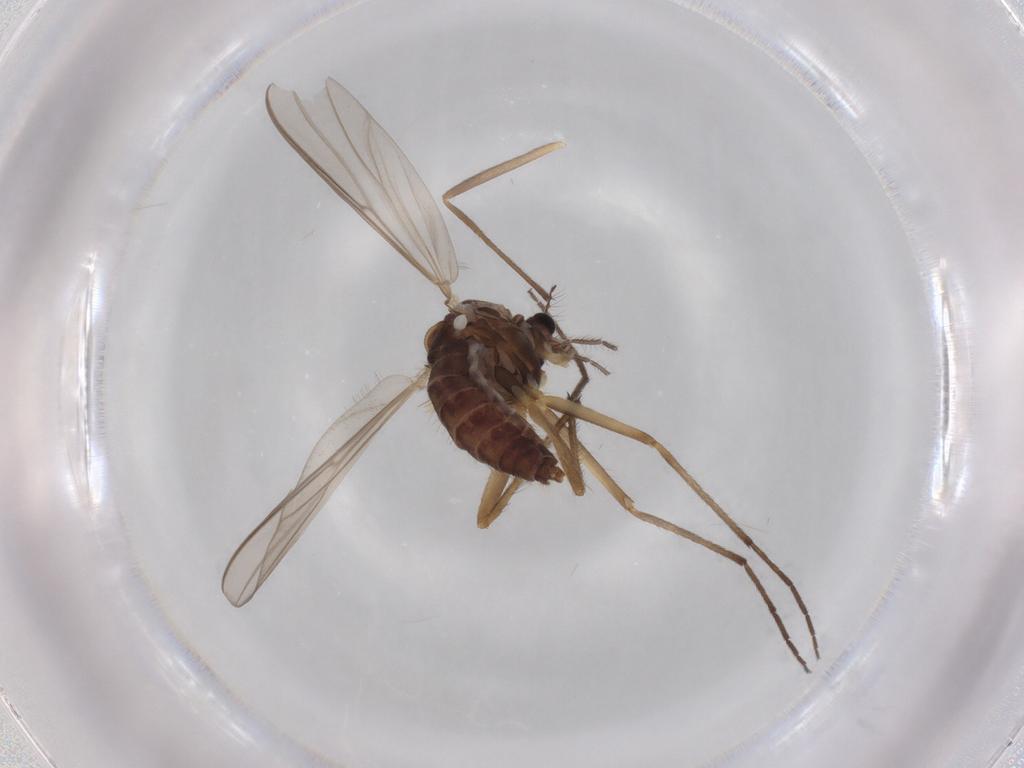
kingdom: Animalia
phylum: Arthropoda
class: Insecta
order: Diptera
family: Chironomidae
